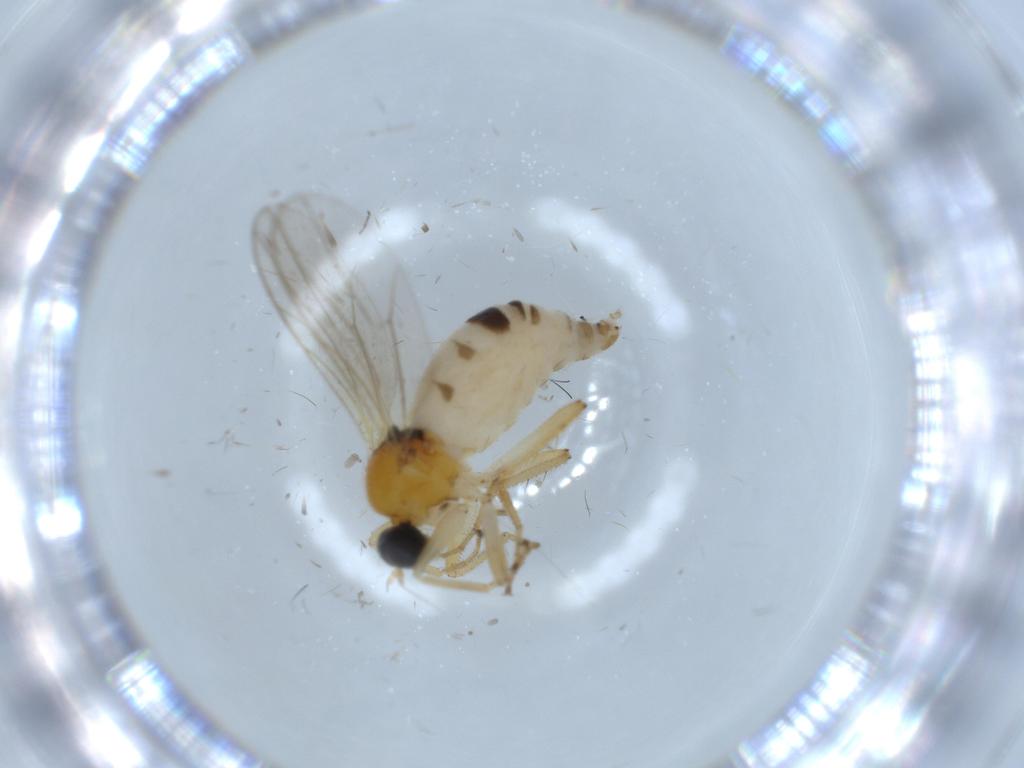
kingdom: Animalia
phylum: Arthropoda
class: Insecta
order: Diptera
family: Hybotidae
